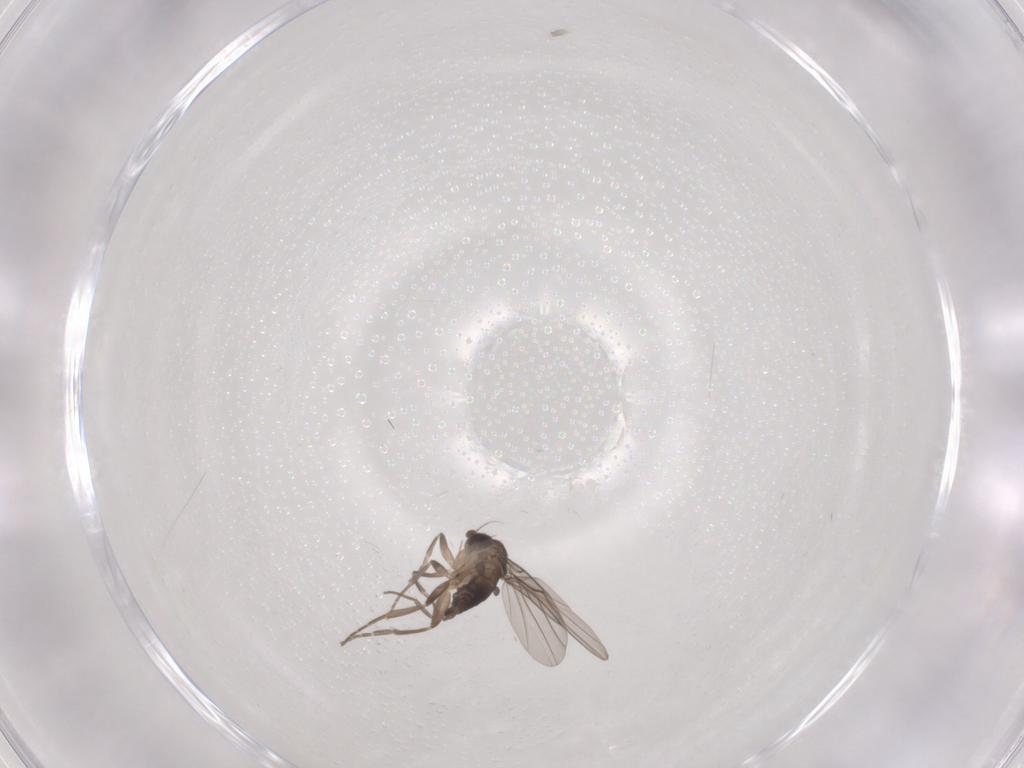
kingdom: Animalia
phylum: Arthropoda
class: Insecta
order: Diptera
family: Phoridae
